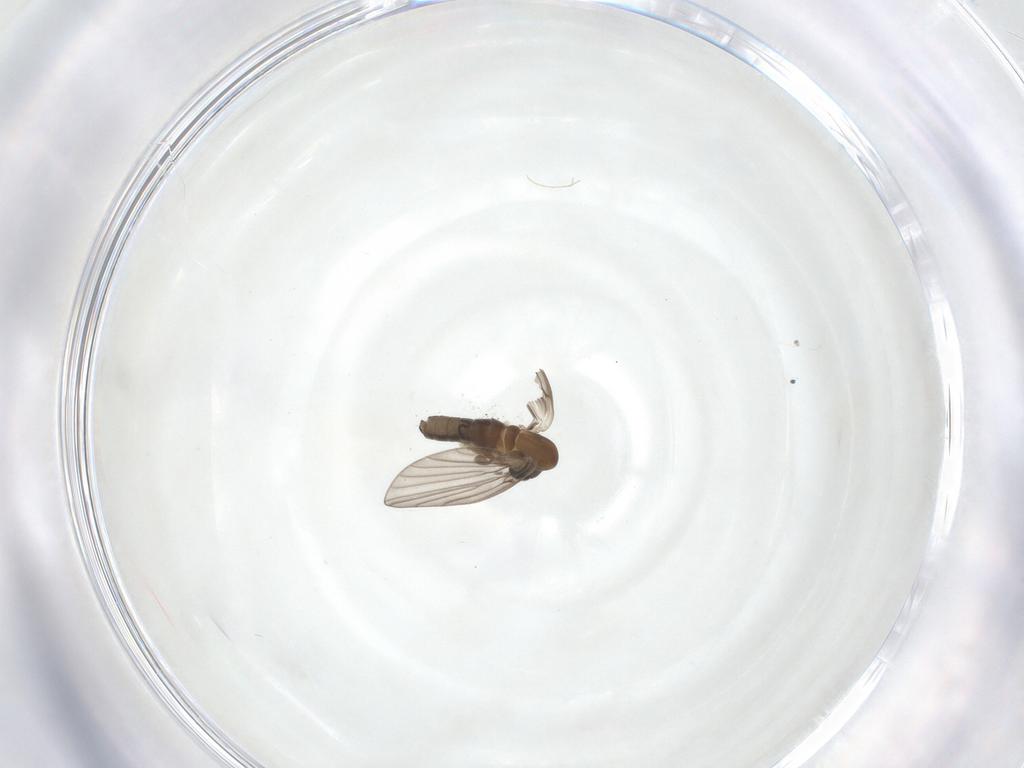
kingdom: Animalia
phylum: Arthropoda
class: Insecta
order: Diptera
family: Psychodidae
